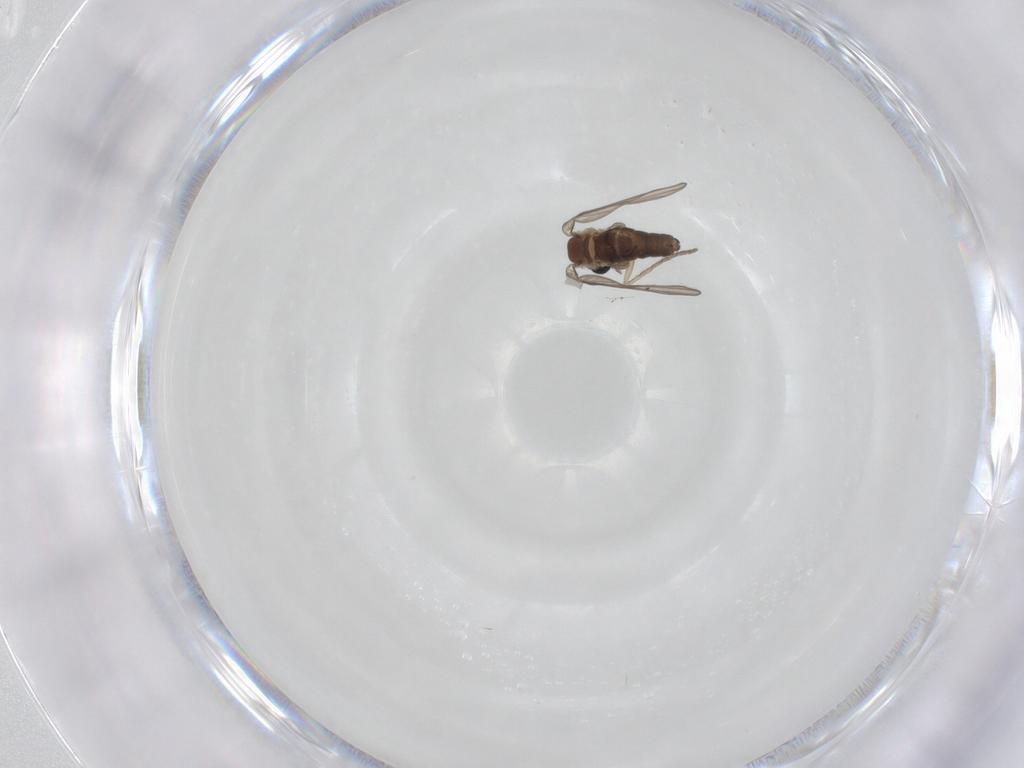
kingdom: Animalia
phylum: Arthropoda
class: Insecta
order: Diptera
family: Psychodidae
